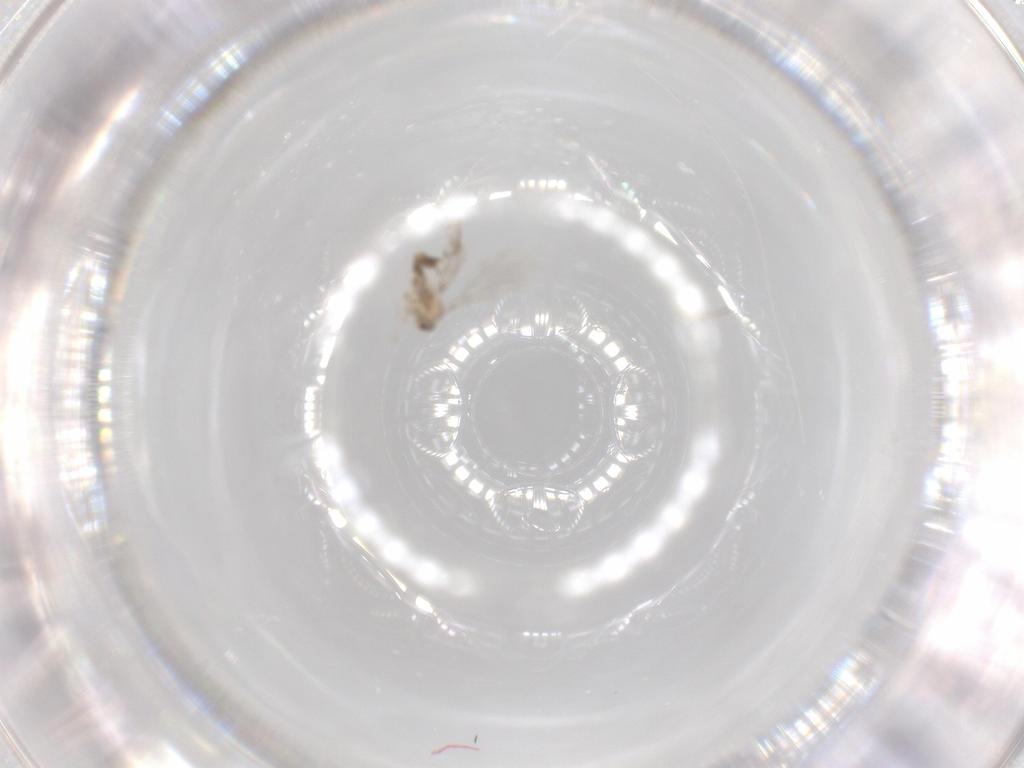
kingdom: Animalia
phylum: Arthropoda
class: Insecta
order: Diptera
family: Cecidomyiidae
